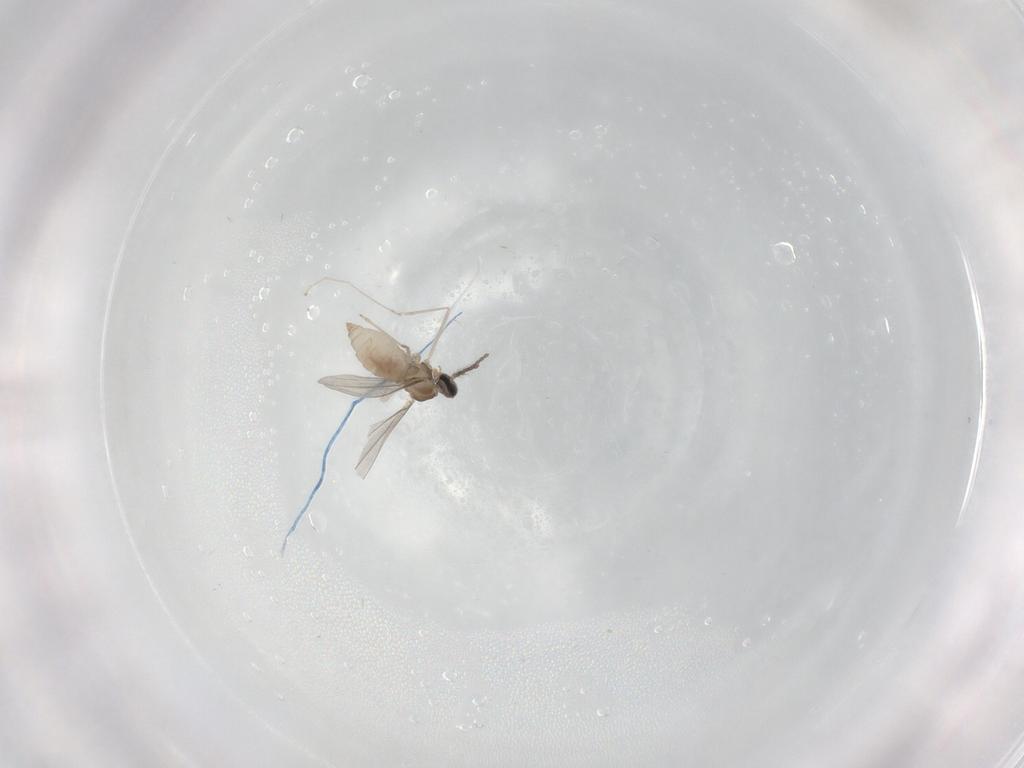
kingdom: Animalia
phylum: Arthropoda
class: Insecta
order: Diptera
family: Cecidomyiidae
